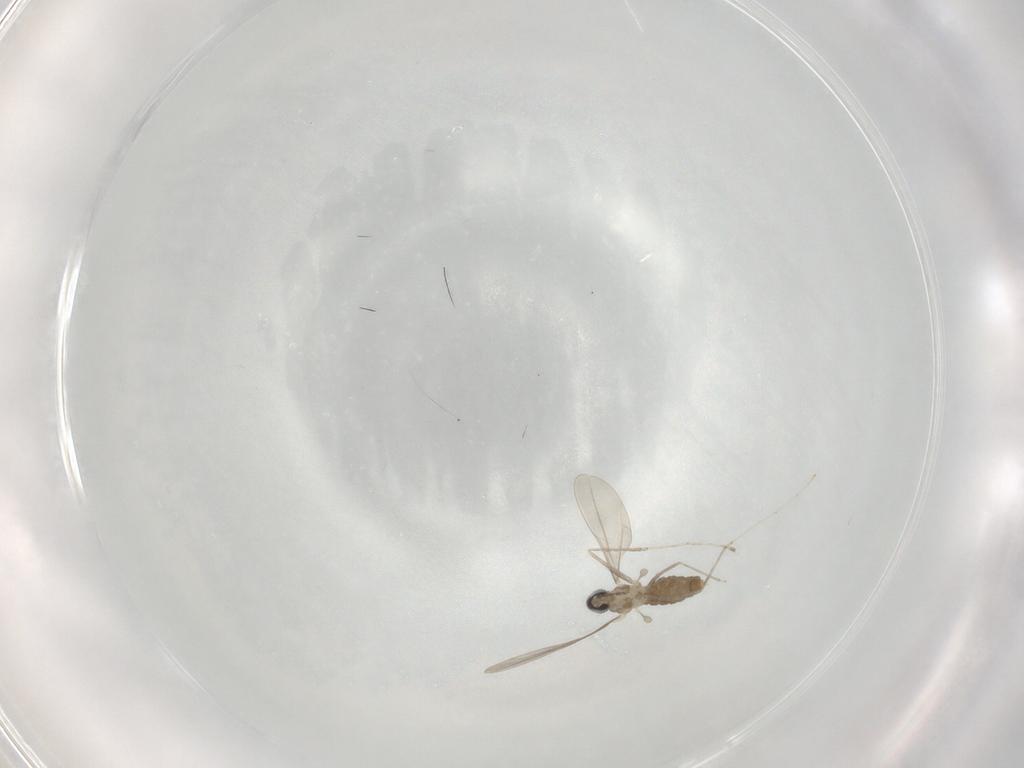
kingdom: Animalia
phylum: Arthropoda
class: Insecta
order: Diptera
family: Cecidomyiidae
